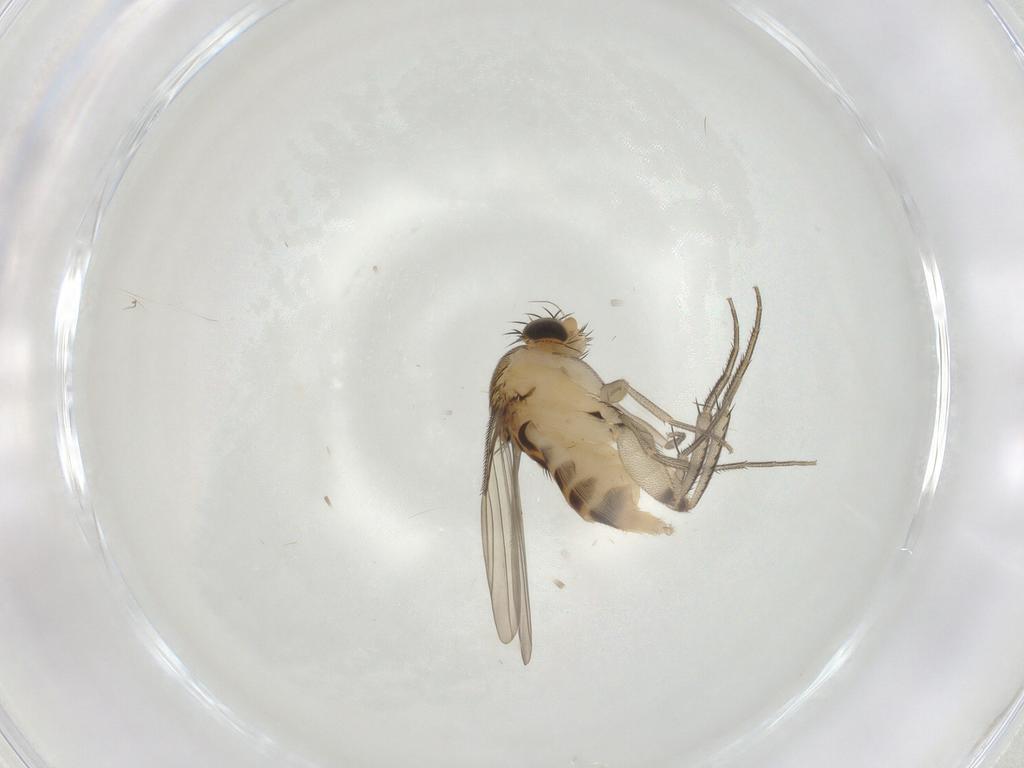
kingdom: Animalia
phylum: Arthropoda
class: Insecta
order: Diptera
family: Phoridae
